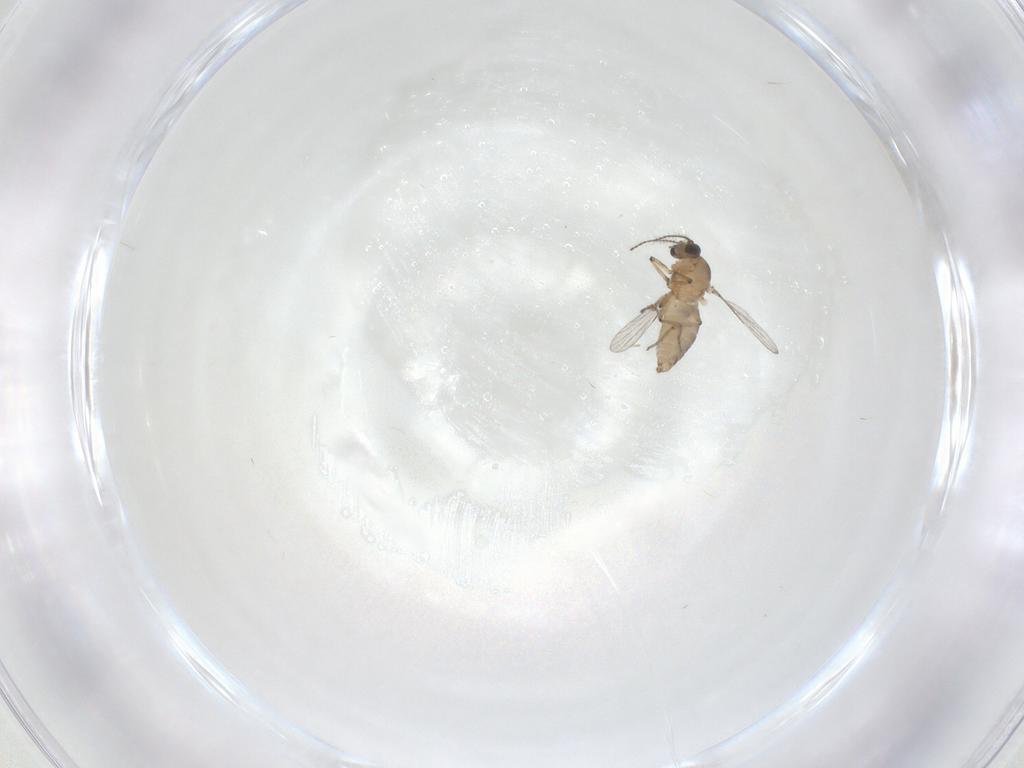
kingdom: Animalia
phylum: Arthropoda
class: Insecta
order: Diptera
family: Ceratopogonidae
